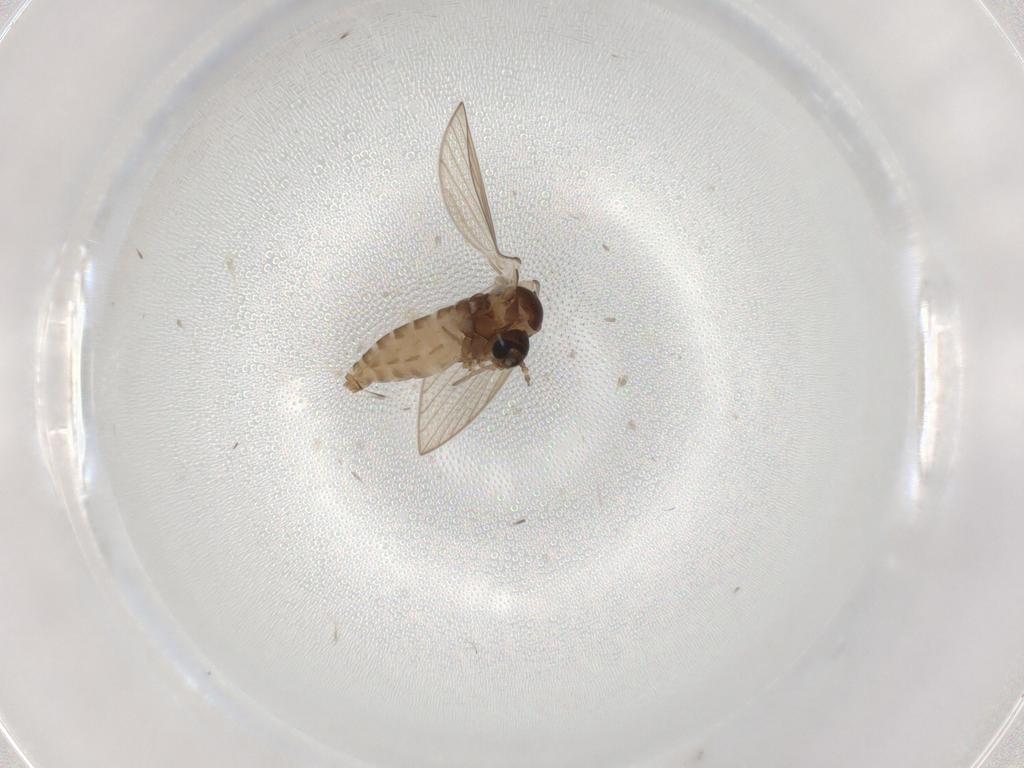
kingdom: Animalia
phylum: Arthropoda
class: Insecta
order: Diptera
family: Psychodidae
